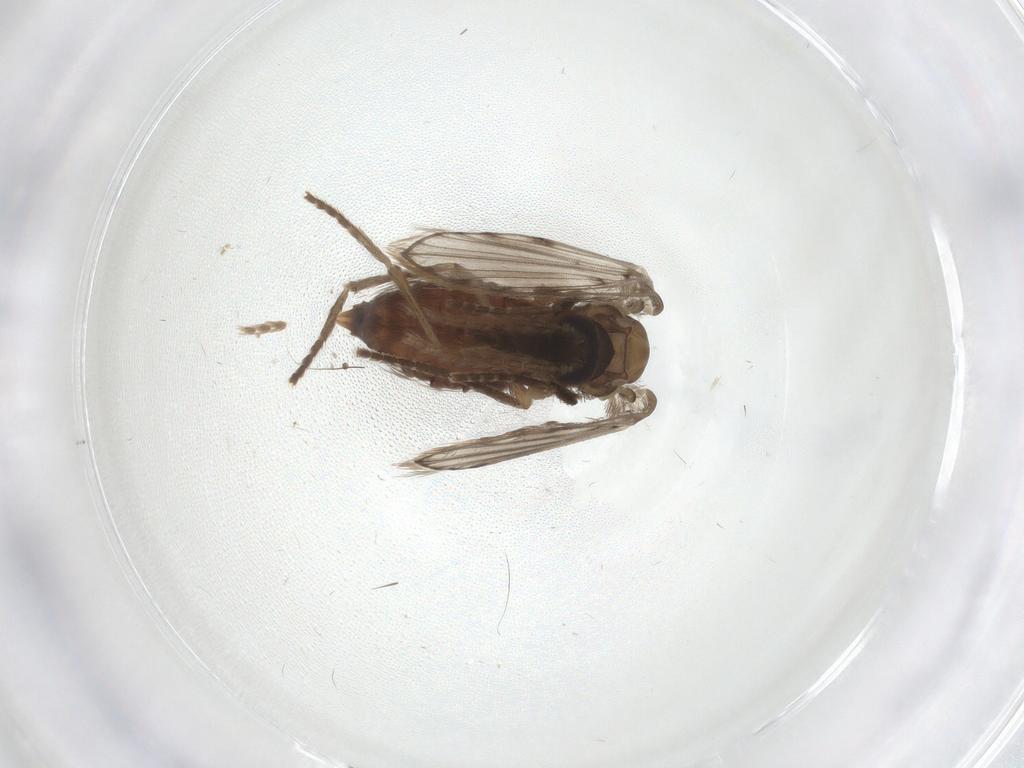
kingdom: Animalia
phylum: Arthropoda
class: Insecta
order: Diptera
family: Psychodidae
